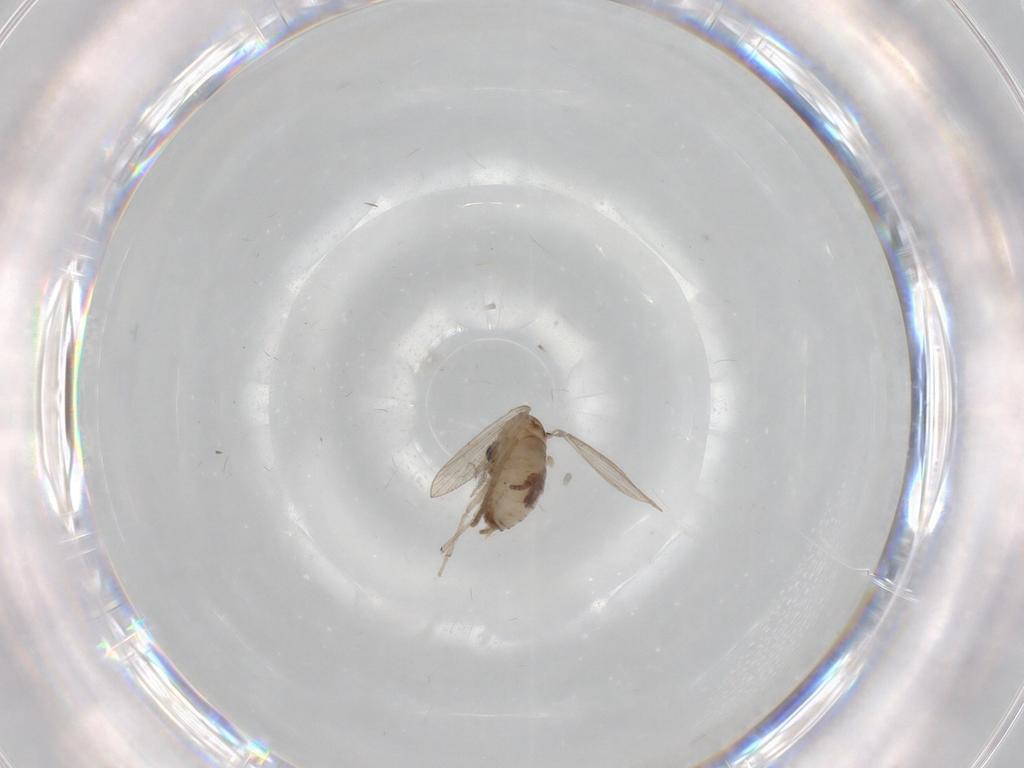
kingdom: Animalia
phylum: Arthropoda
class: Insecta
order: Diptera
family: Psychodidae
